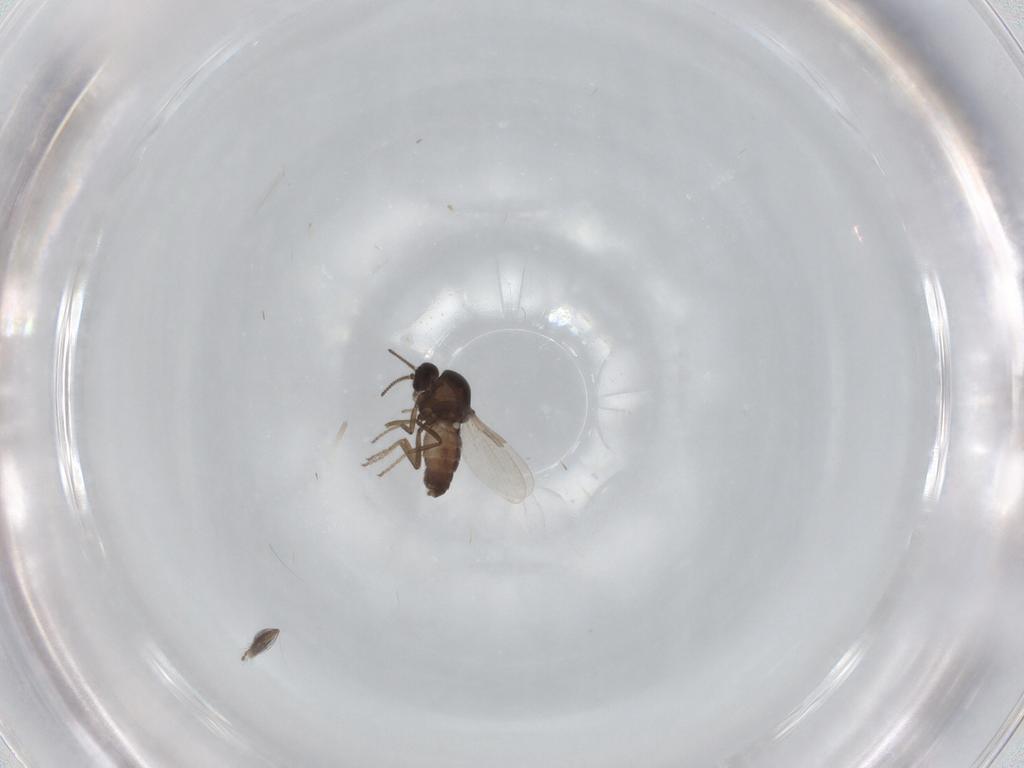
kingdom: Animalia
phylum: Arthropoda
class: Insecta
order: Diptera
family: Ceratopogonidae
